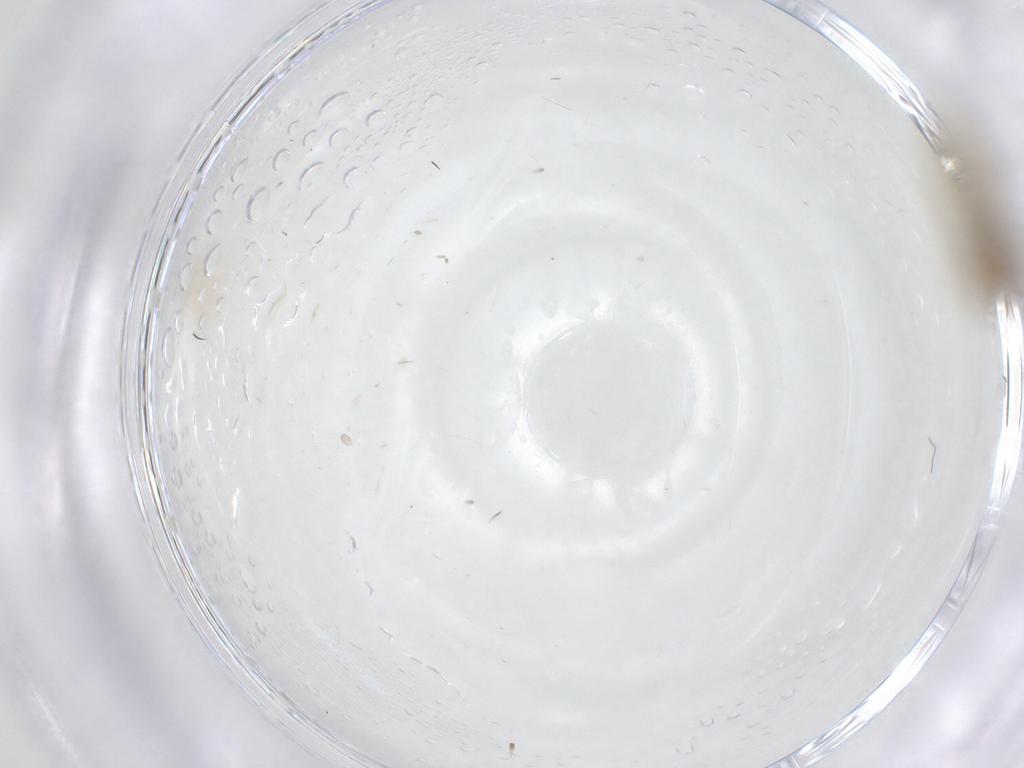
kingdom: Animalia
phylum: Arthropoda
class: Insecta
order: Diptera
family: Ceratopogonidae
